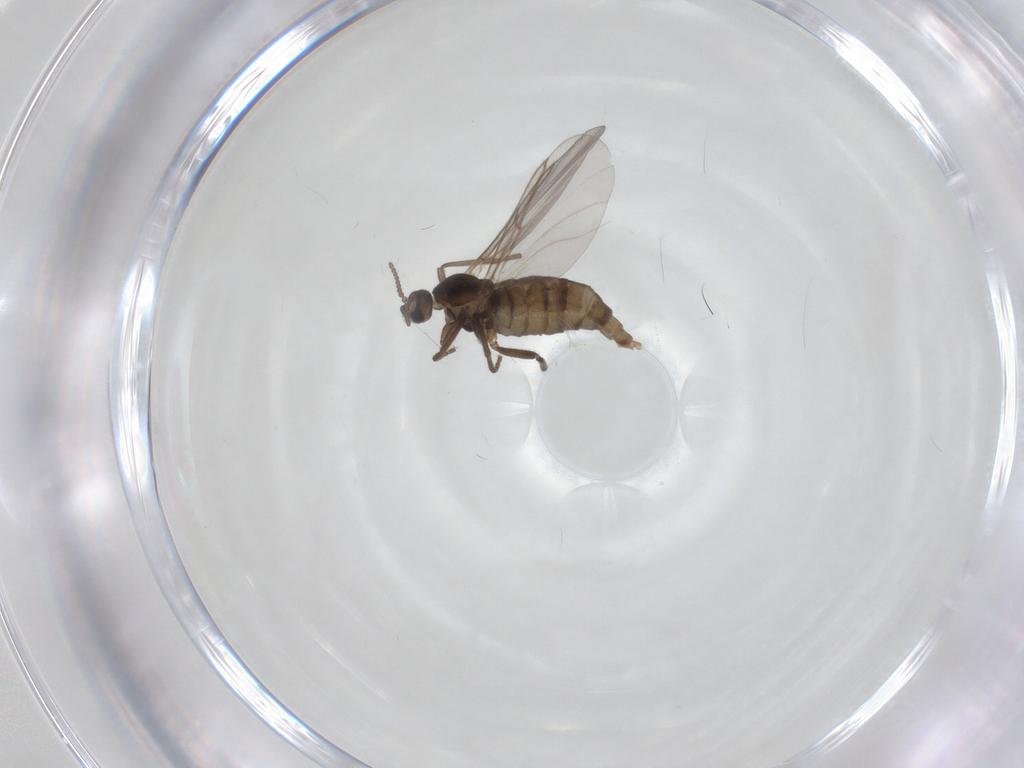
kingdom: Animalia
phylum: Arthropoda
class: Insecta
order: Diptera
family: Cecidomyiidae
